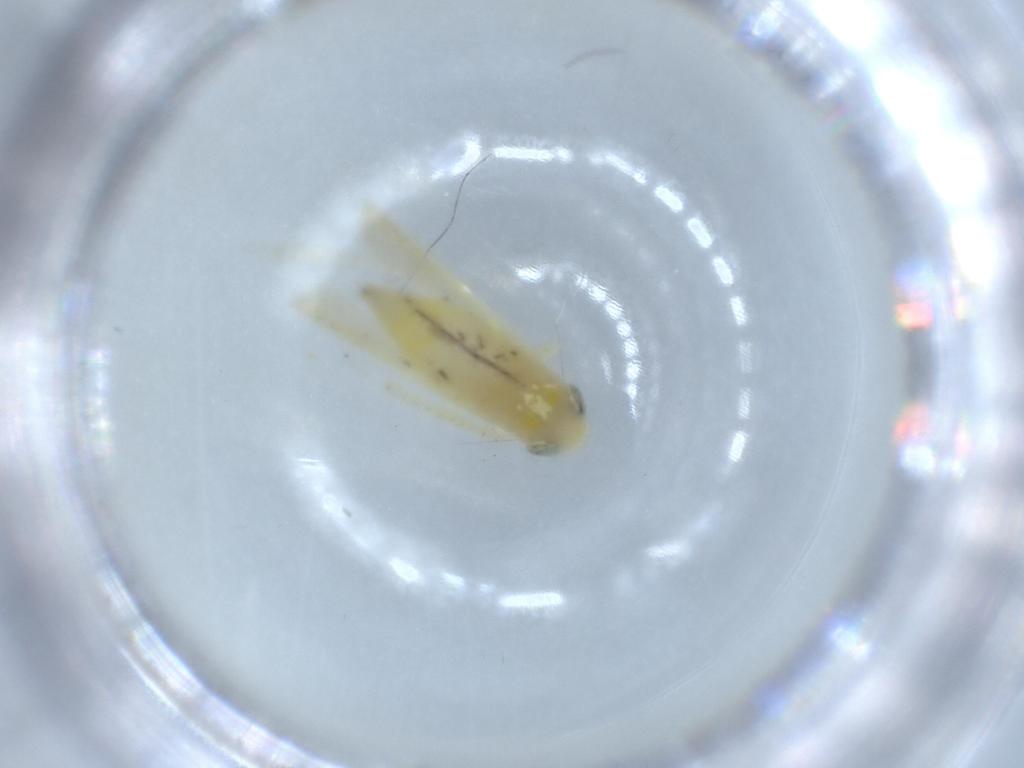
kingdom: Animalia
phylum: Arthropoda
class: Insecta
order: Hemiptera
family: Cicadellidae
